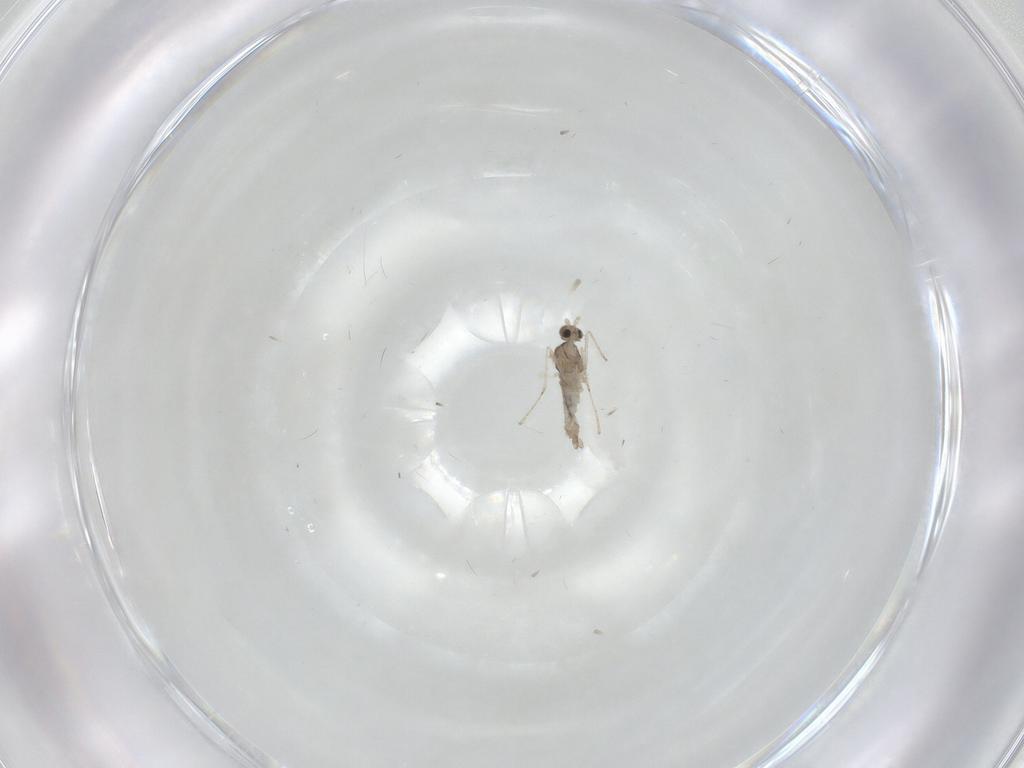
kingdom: Animalia
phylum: Arthropoda
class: Insecta
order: Diptera
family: Cecidomyiidae
